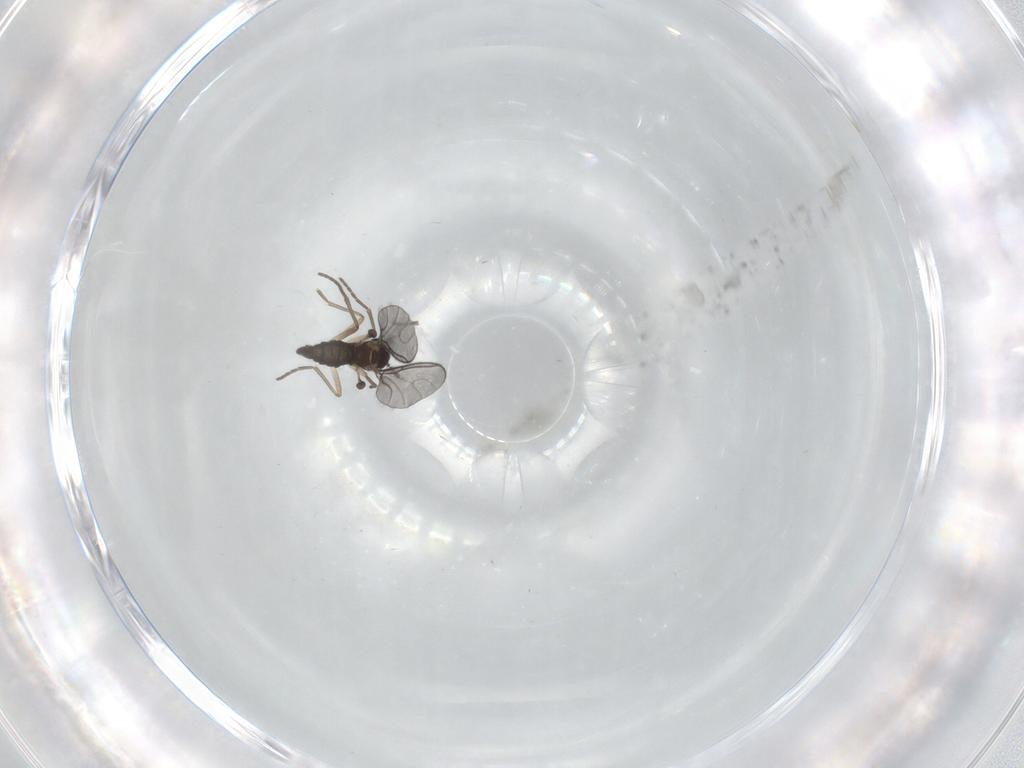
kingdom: Animalia
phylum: Arthropoda
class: Insecta
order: Diptera
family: Sciaridae
